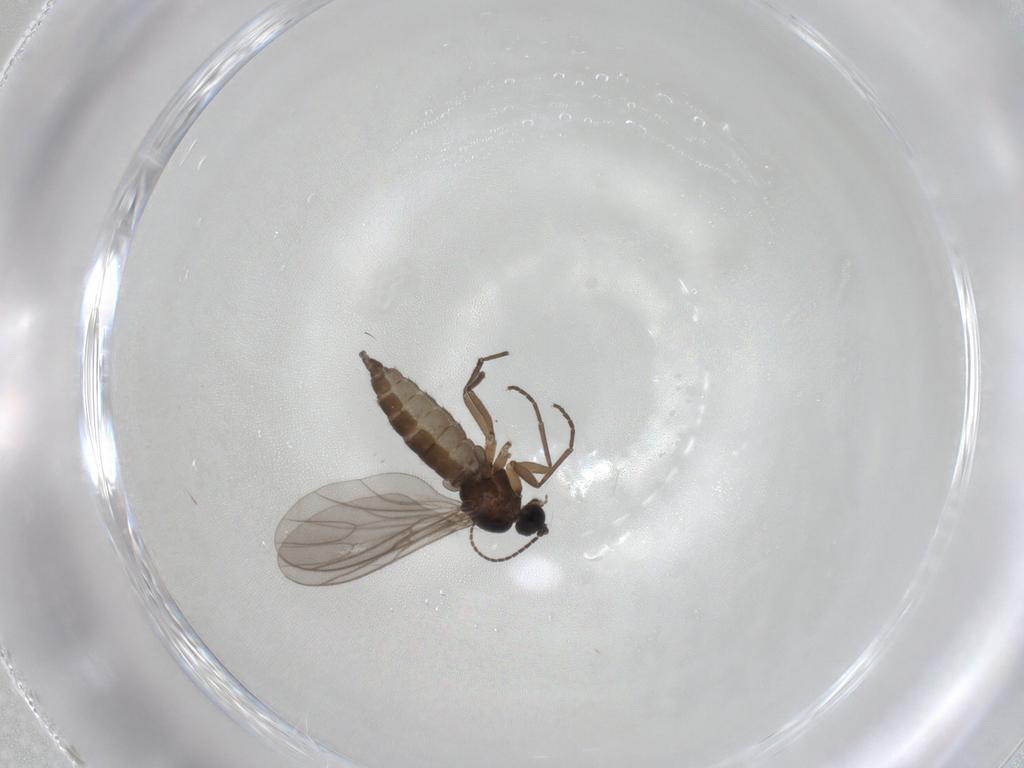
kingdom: Animalia
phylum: Arthropoda
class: Insecta
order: Diptera
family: Sciaridae
